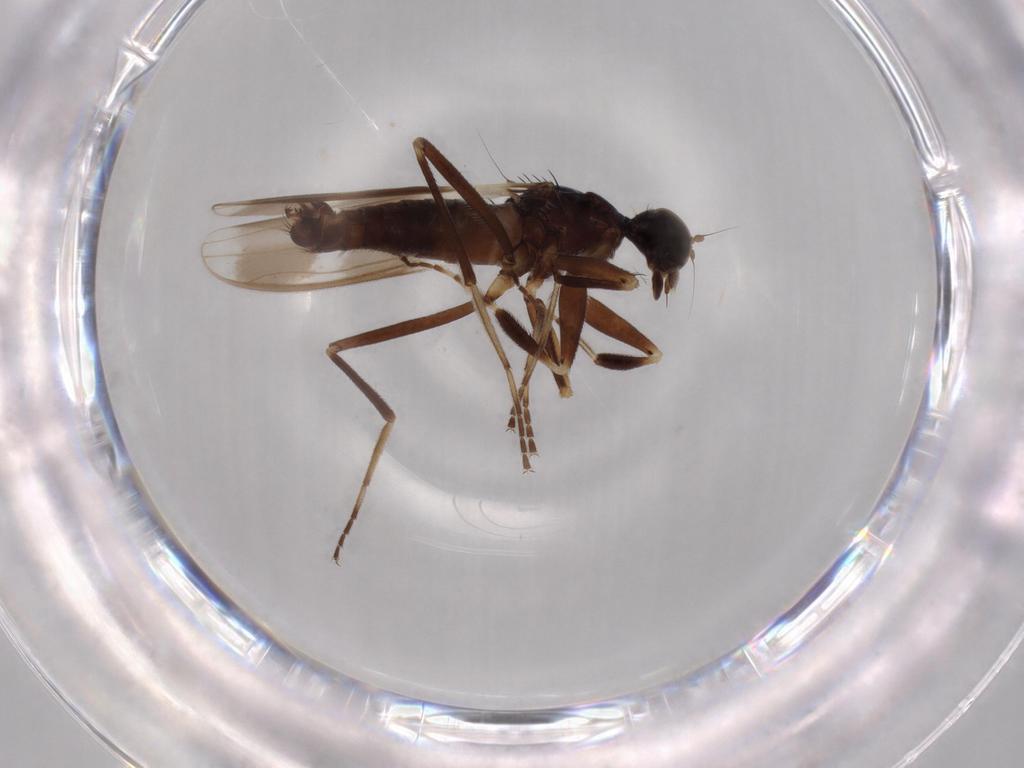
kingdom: Animalia
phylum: Arthropoda
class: Insecta
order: Diptera
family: Hybotidae
